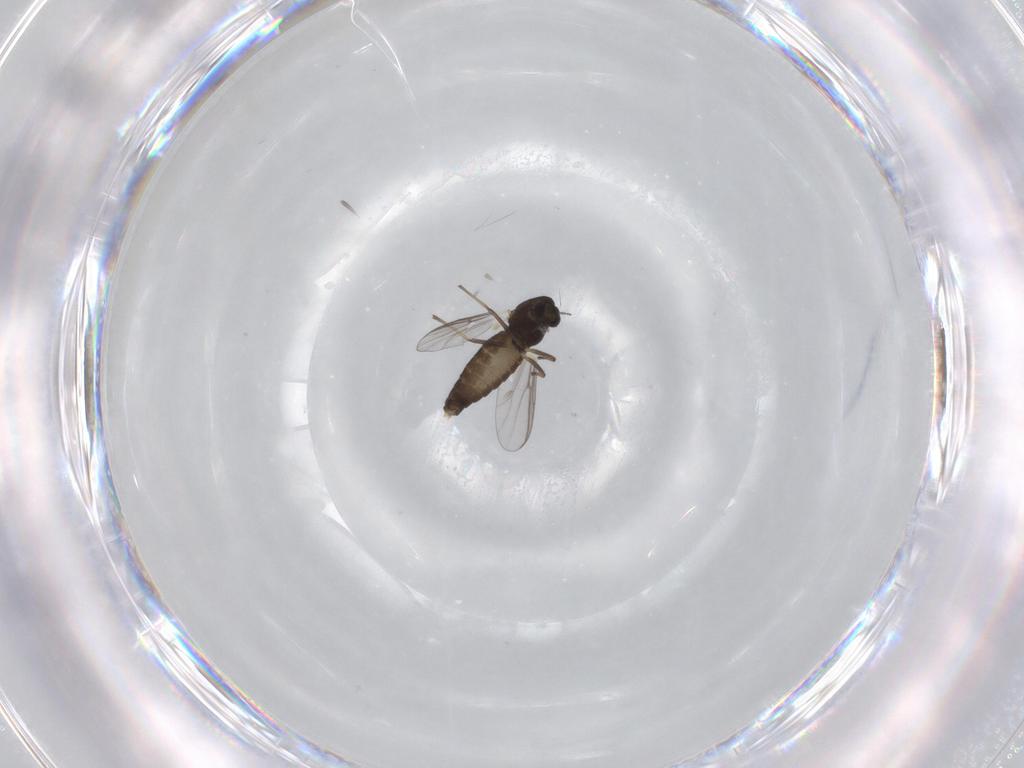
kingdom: Animalia
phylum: Arthropoda
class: Insecta
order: Diptera
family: Chironomidae
